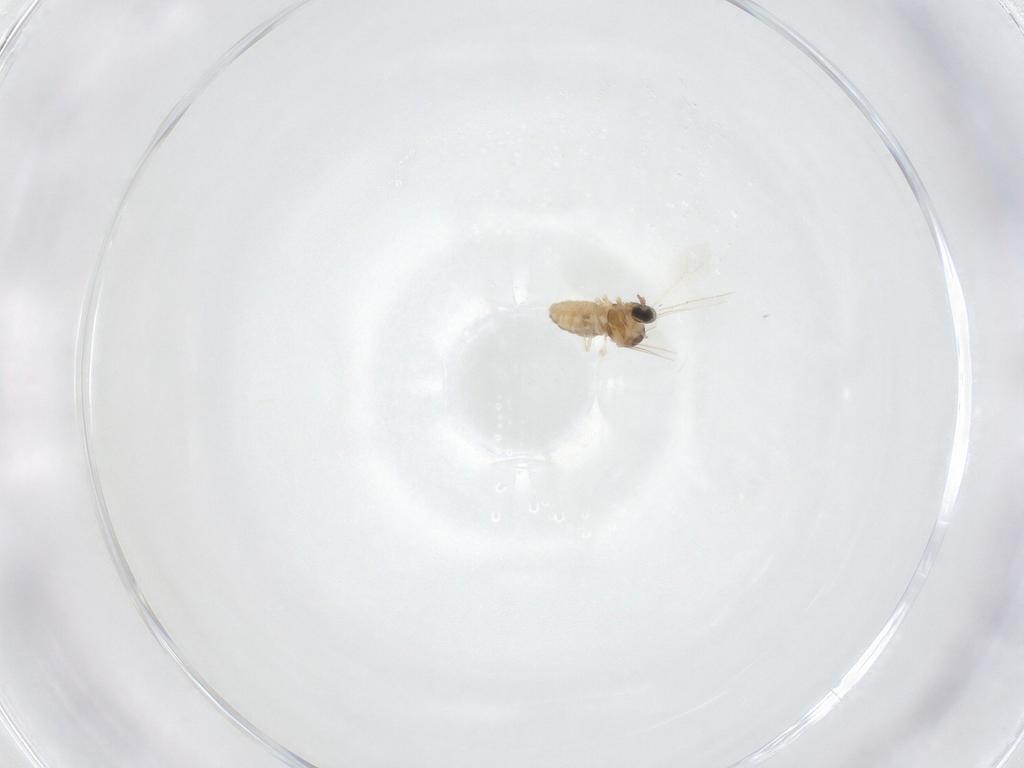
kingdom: Animalia
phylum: Arthropoda
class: Insecta
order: Diptera
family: Cecidomyiidae
